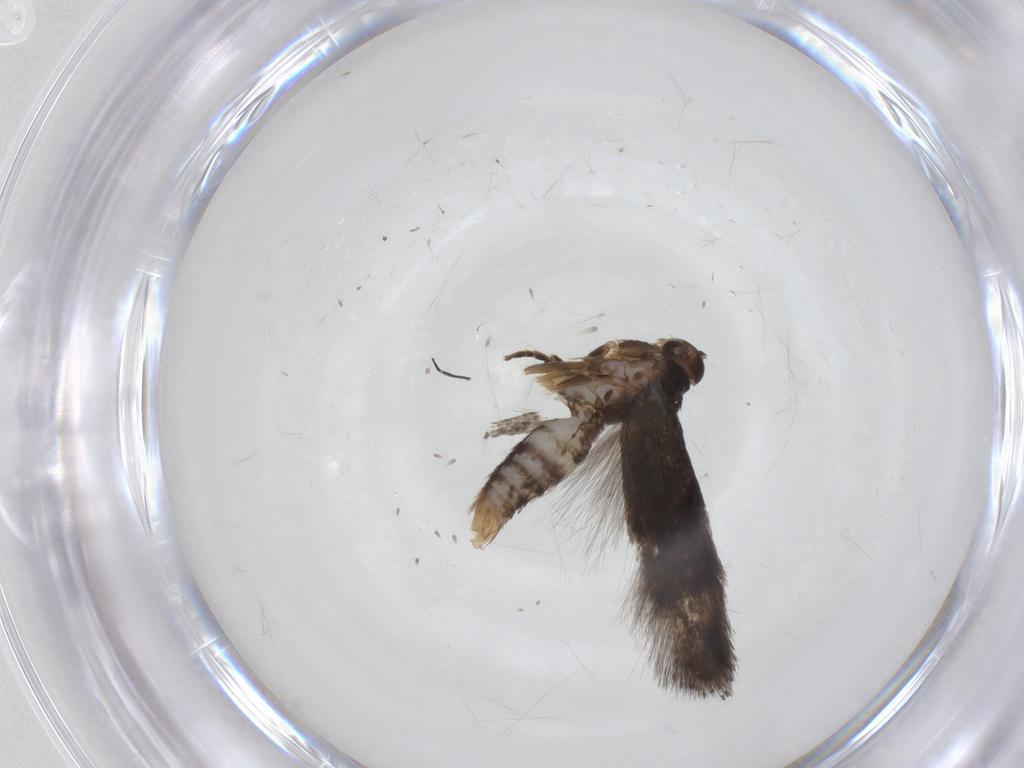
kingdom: Animalia
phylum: Arthropoda
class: Insecta
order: Lepidoptera
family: Elachistidae
